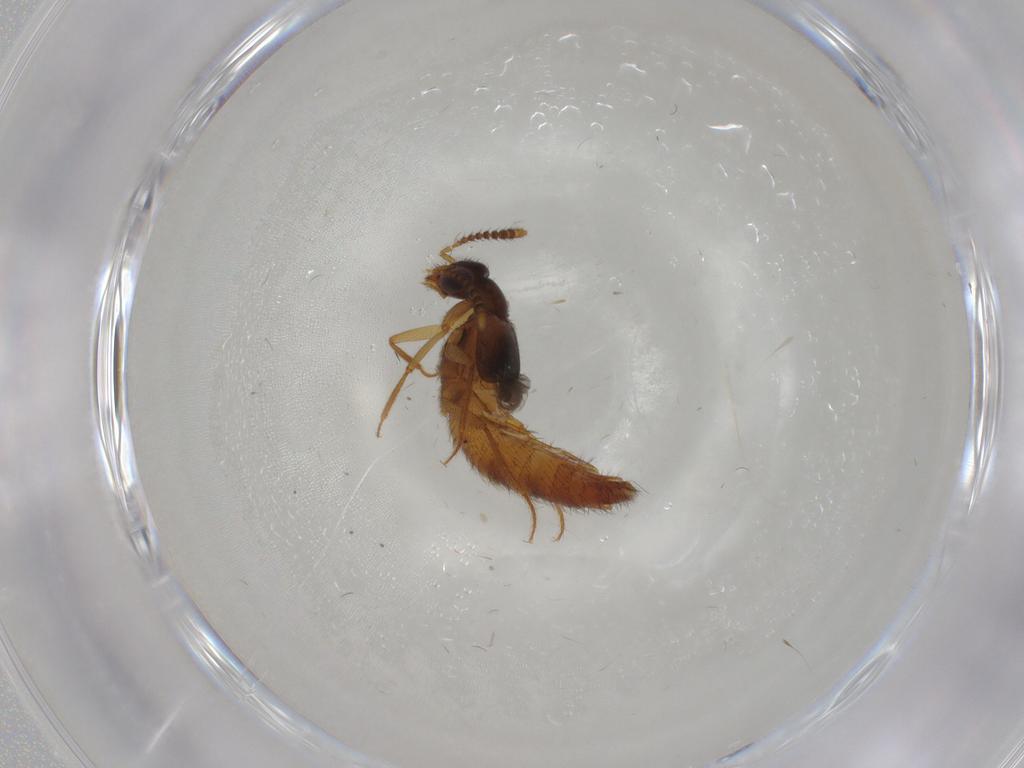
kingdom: Animalia
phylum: Arthropoda
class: Insecta
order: Coleoptera
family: Staphylinidae
